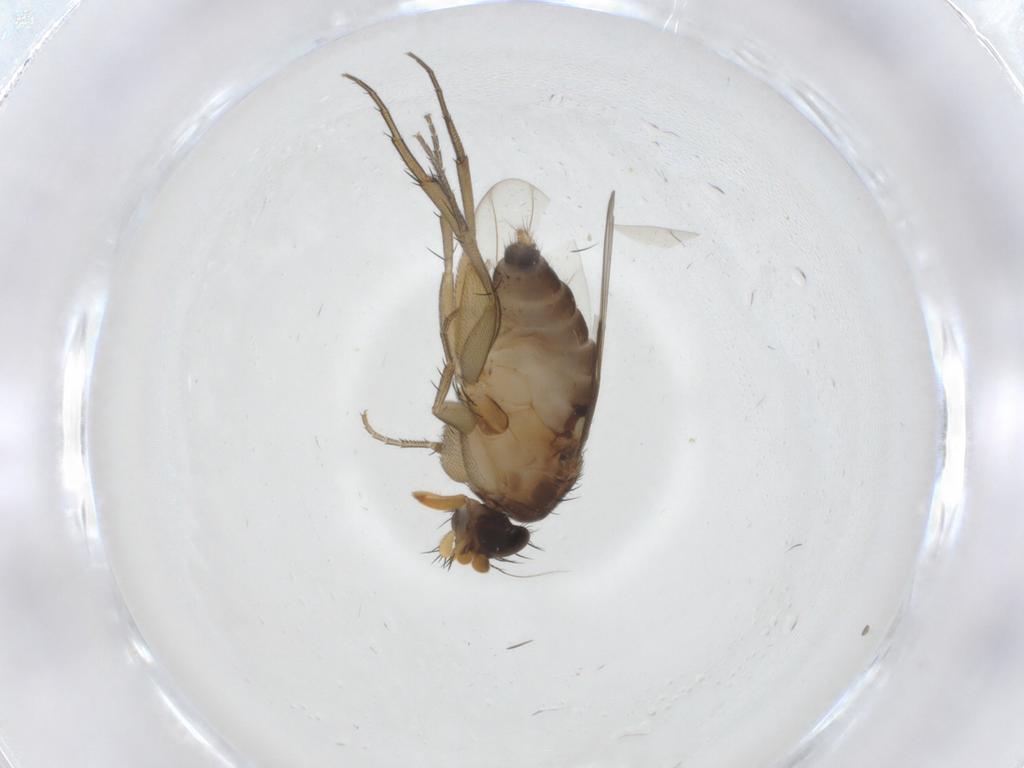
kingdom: Animalia
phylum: Arthropoda
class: Insecta
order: Diptera
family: Phoridae
